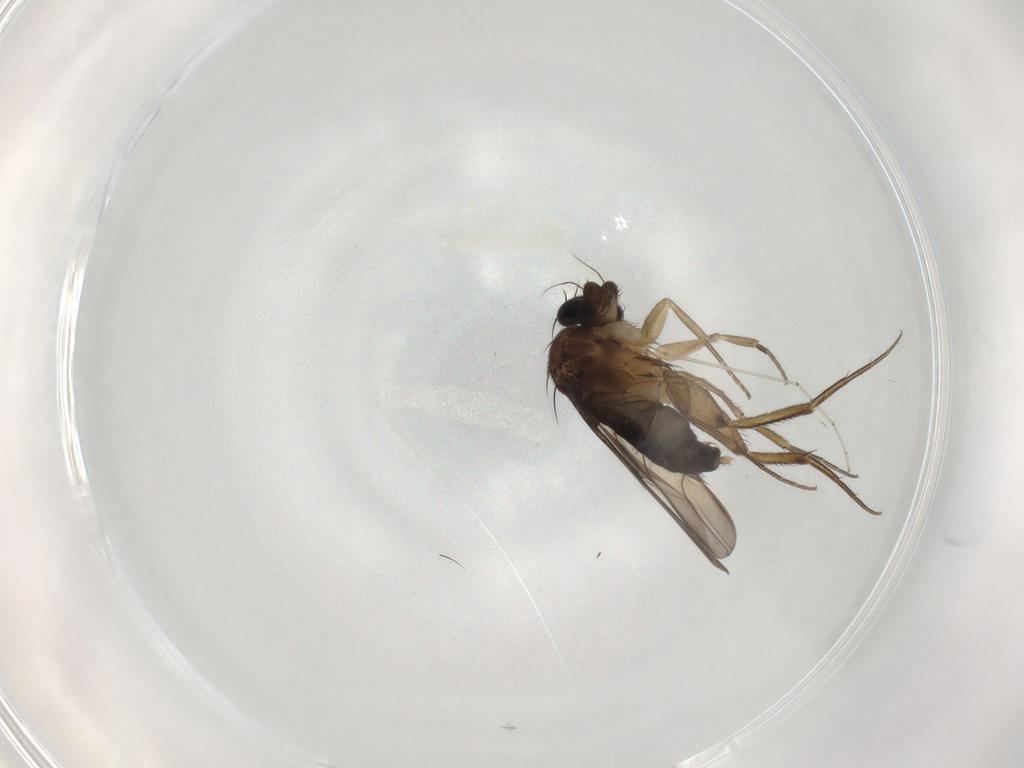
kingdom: Animalia
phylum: Arthropoda
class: Insecta
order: Diptera
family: Phoridae
